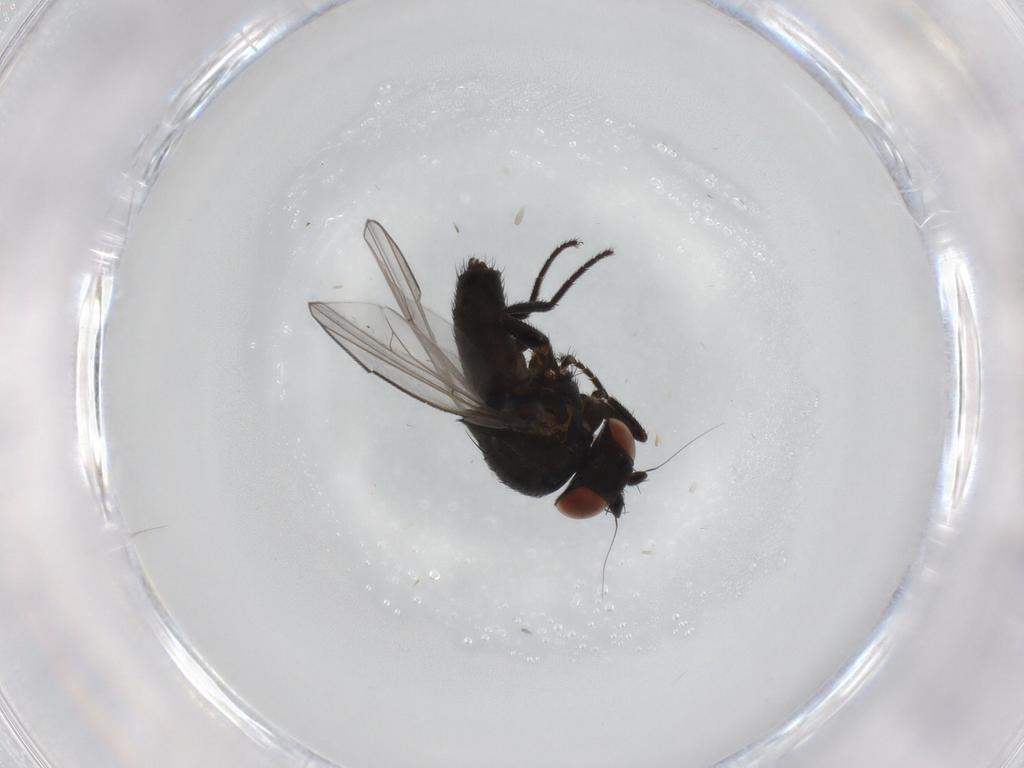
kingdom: Animalia
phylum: Arthropoda
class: Insecta
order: Diptera
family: Milichiidae
